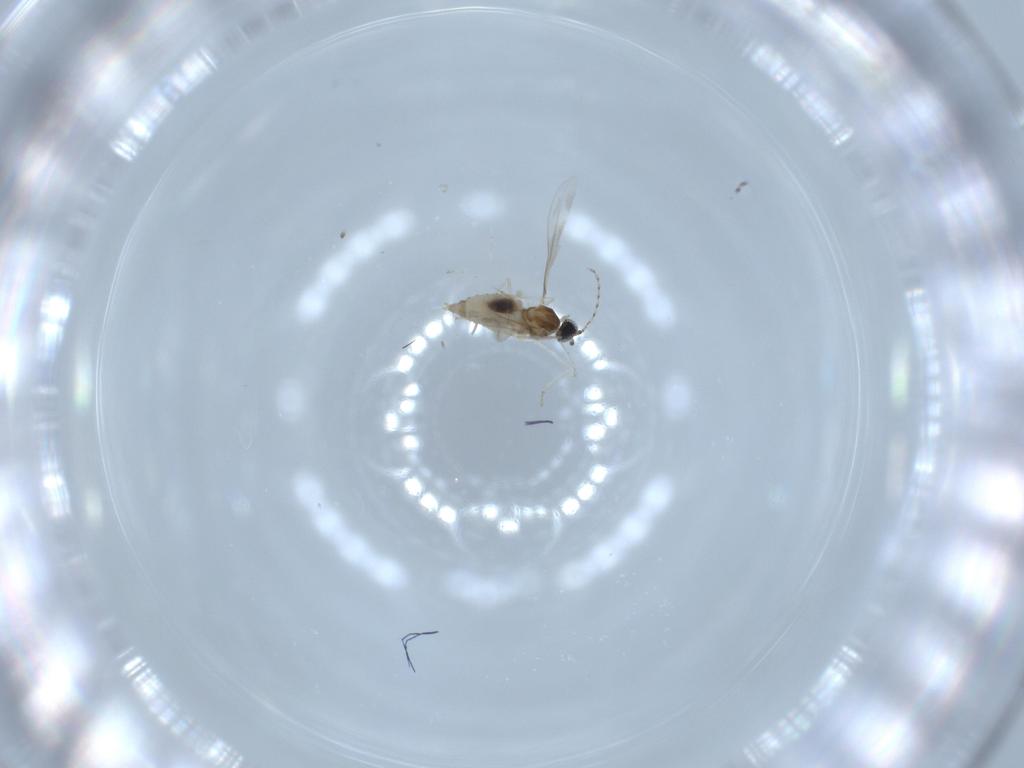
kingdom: Animalia
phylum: Arthropoda
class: Insecta
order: Diptera
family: Cecidomyiidae
